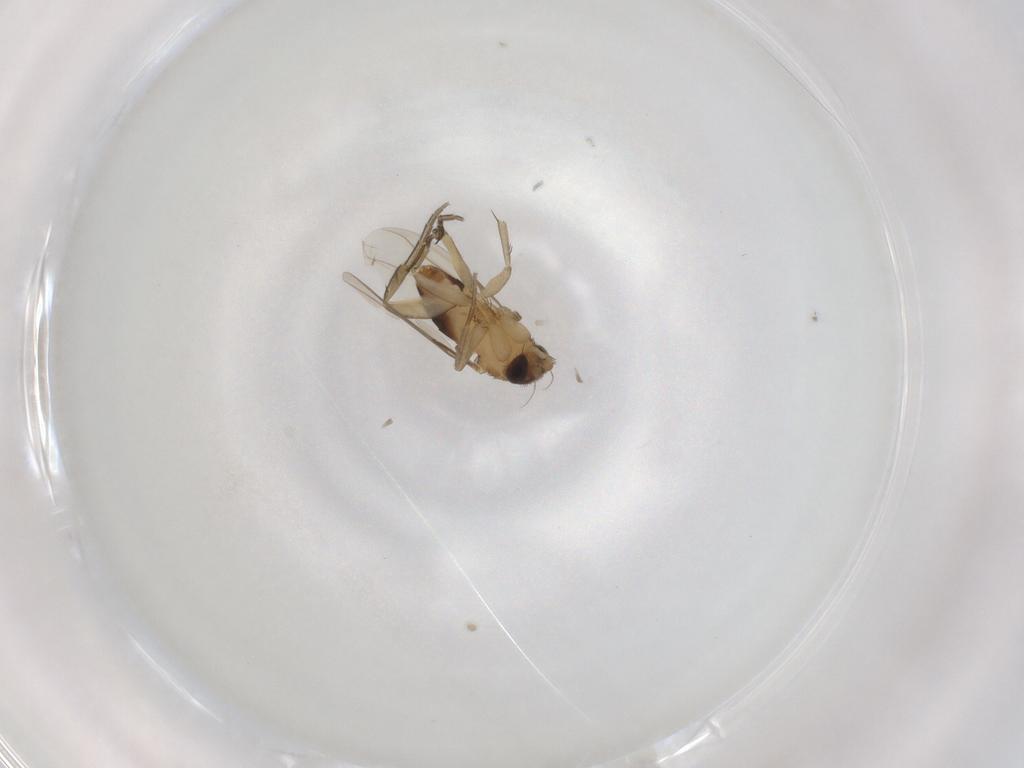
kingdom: Animalia
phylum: Arthropoda
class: Insecta
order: Diptera
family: Phoridae
